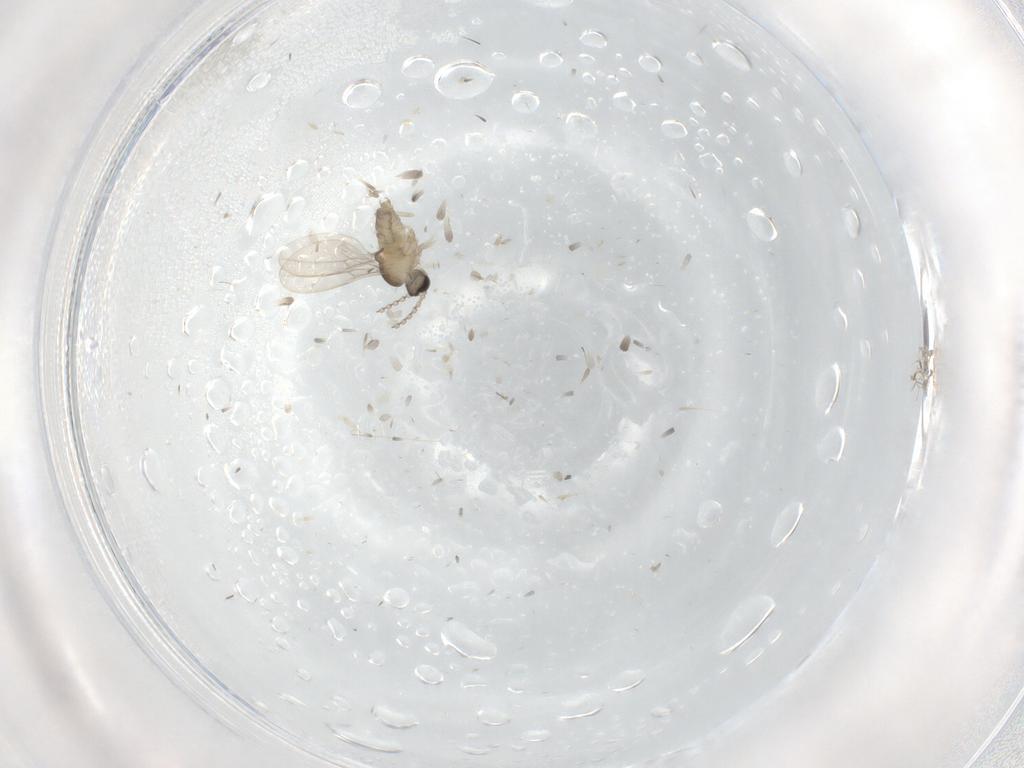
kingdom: Animalia
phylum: Arthropoda
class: Insecta
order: Diptera
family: Cecidomyiidae
